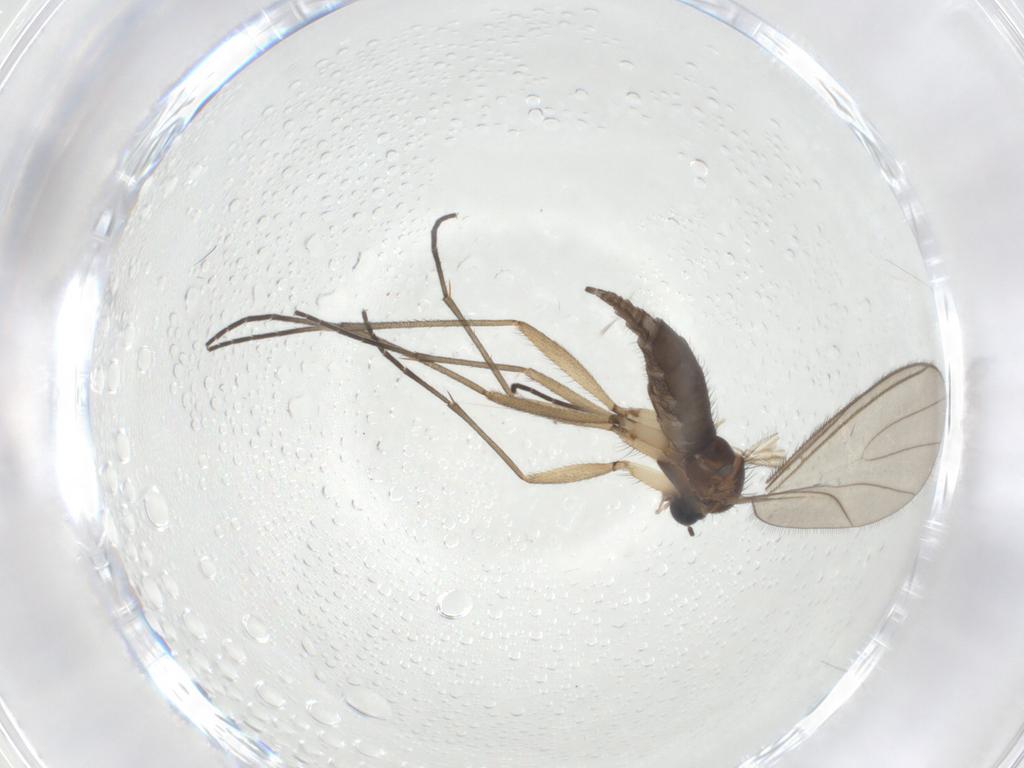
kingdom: Animalia
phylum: Arthropoda
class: Insecta
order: Diptera
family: Sciaridae
